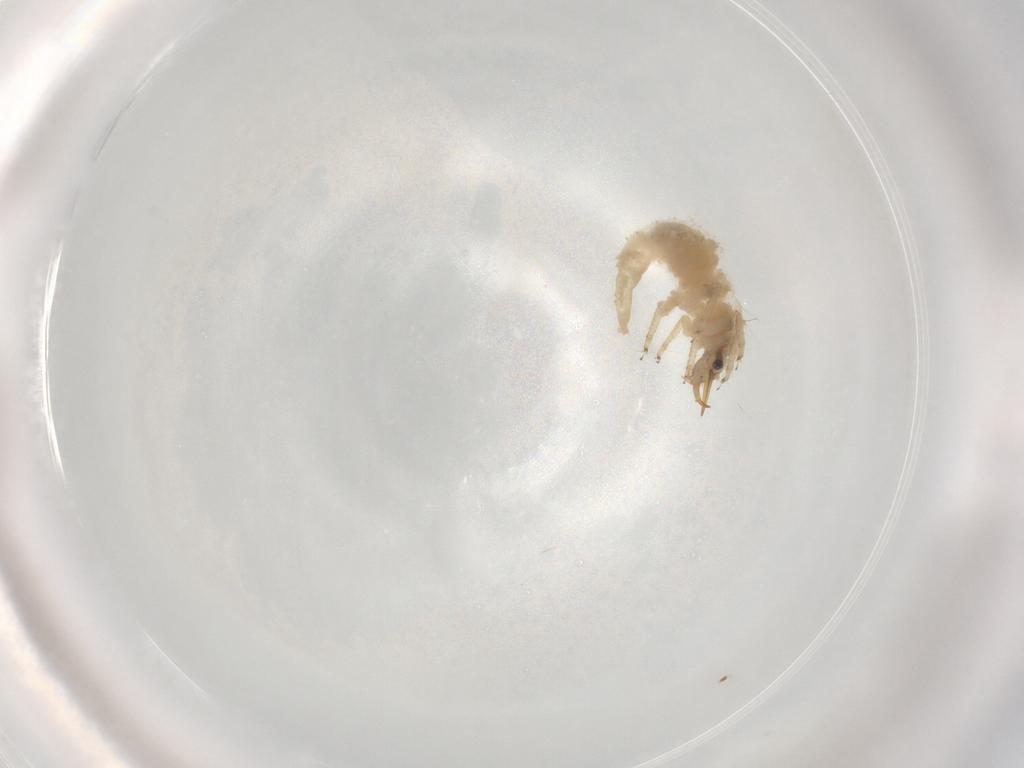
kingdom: Animalia
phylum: Arthropoda
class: Insecta
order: Neuroptera
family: Chrysopidae
